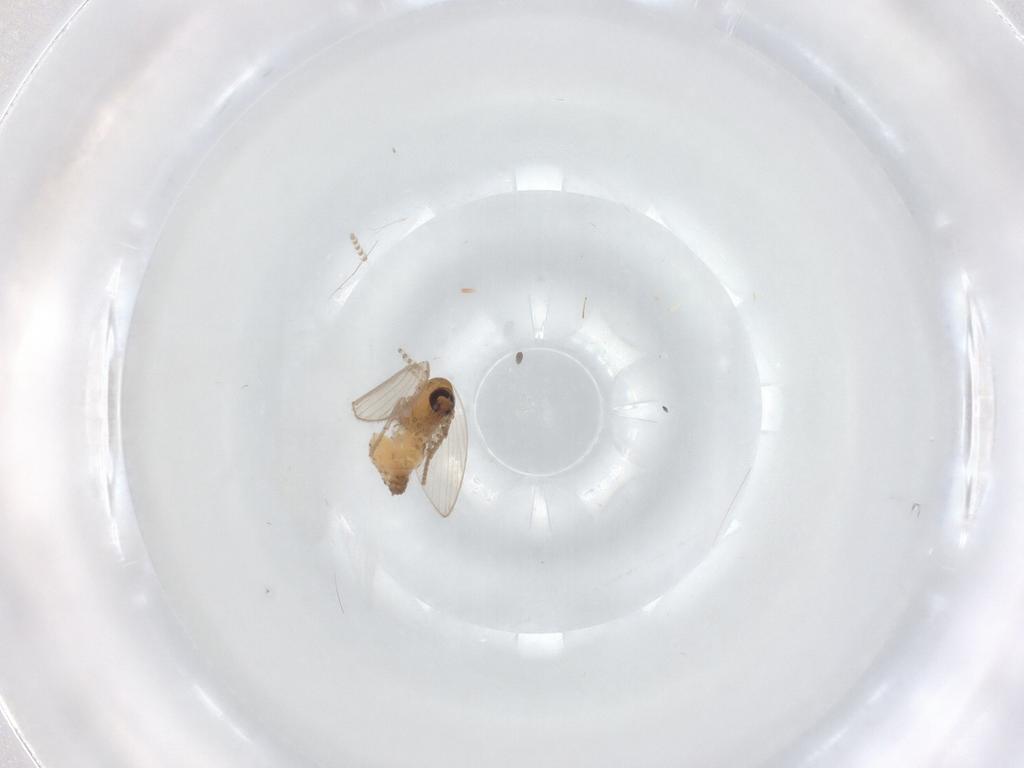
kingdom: Animalia
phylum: Arthropoda
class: Insecta
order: Diptera
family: Psychodidae
